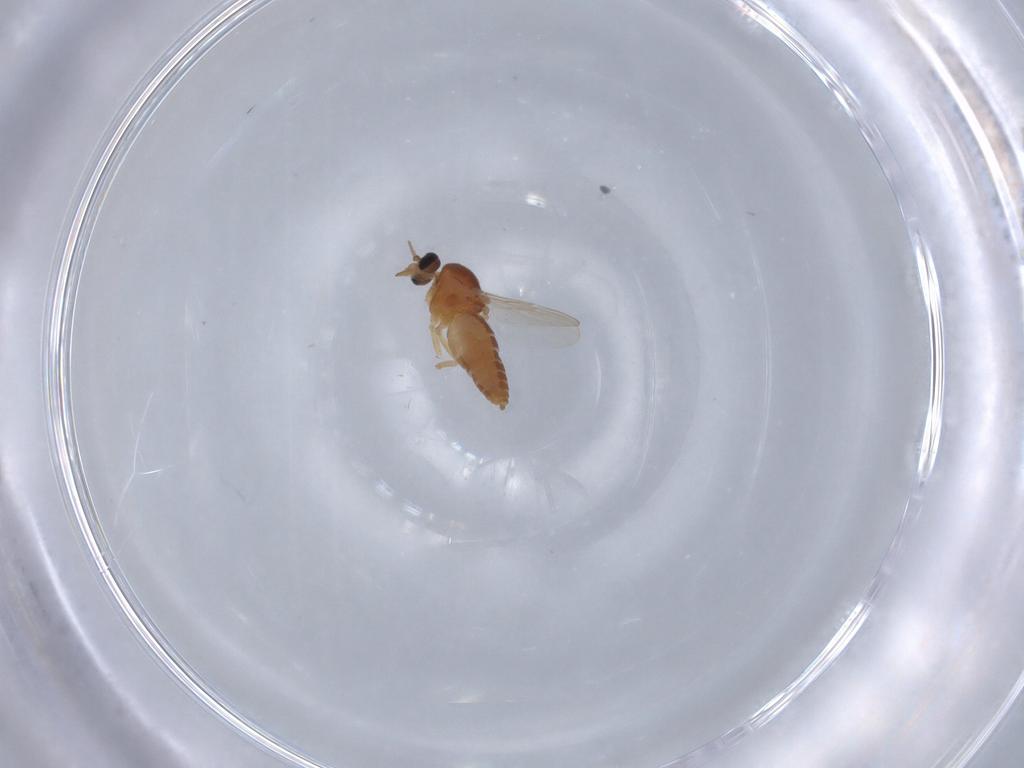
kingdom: Animalia
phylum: Arthropoda
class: Insecta
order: Diptera
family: Ceratopogonidae
